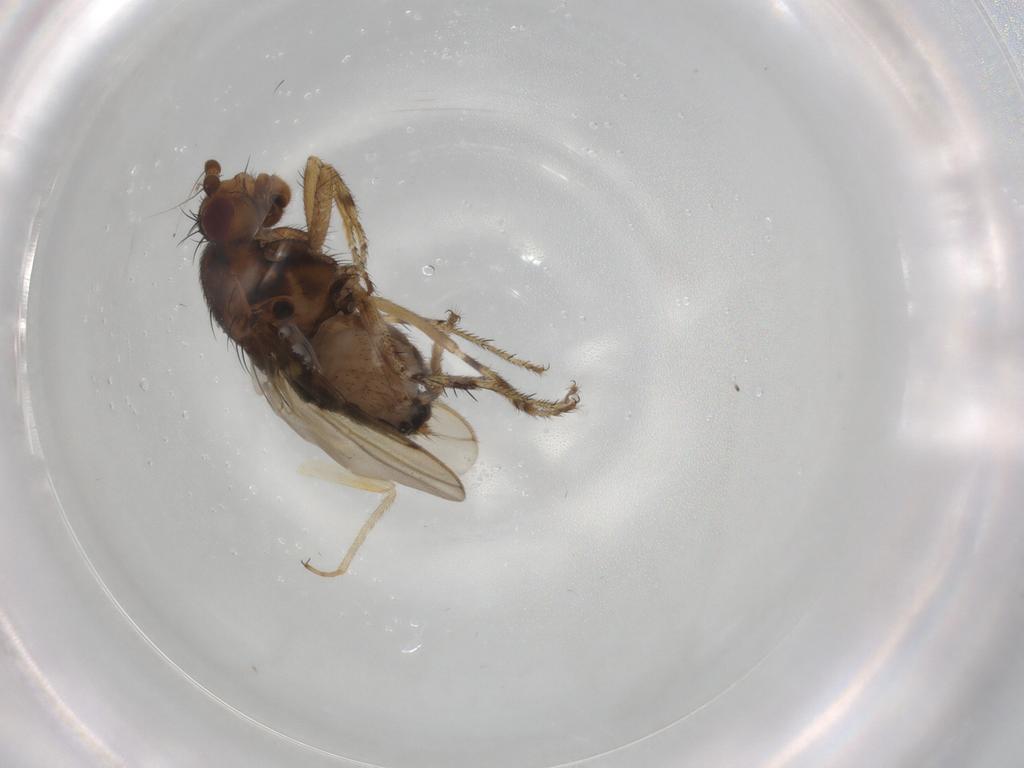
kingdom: Animalia
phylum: Arthropoda
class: Insecta
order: Diptera
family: Sphaeroceridae
